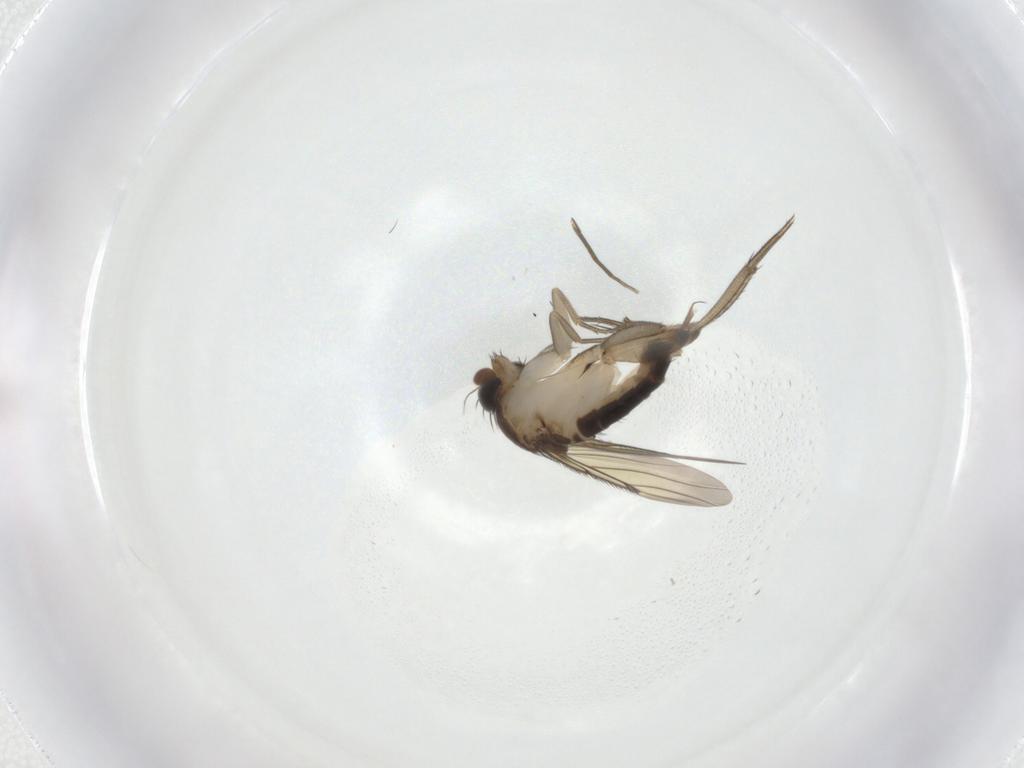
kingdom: Animalia
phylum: Arthropoda
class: Insecta
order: Diptera
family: Phoridae
